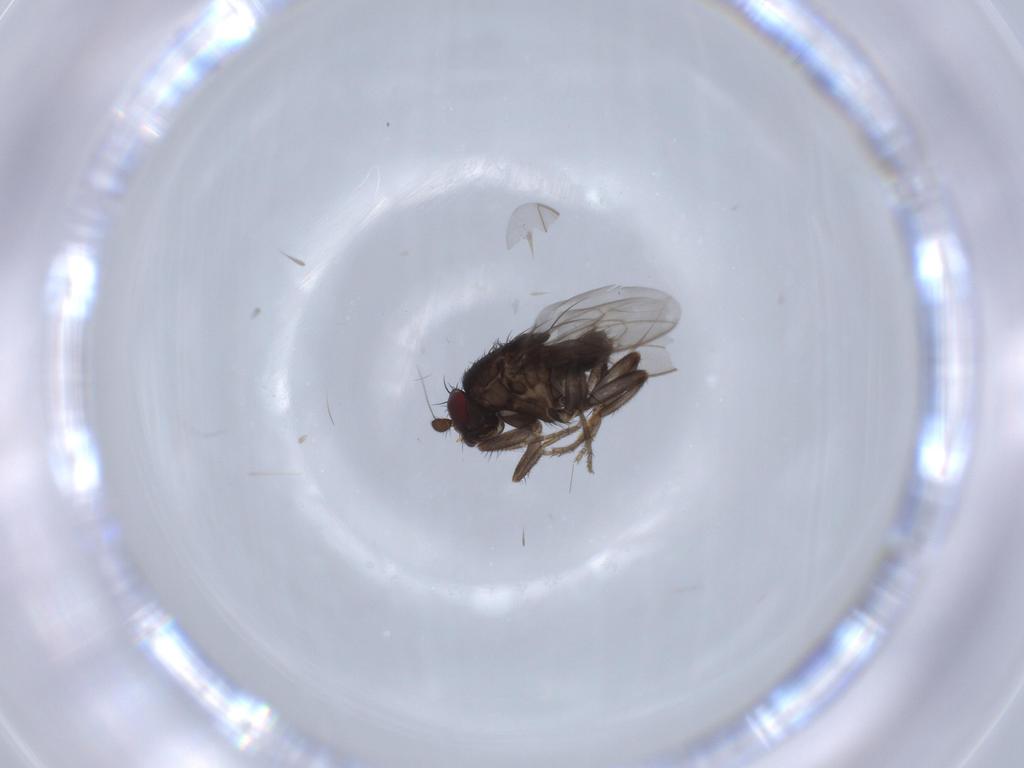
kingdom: Animalia
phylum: Arthropoda
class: Insecta
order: Diptera
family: Sphaeroceridae
